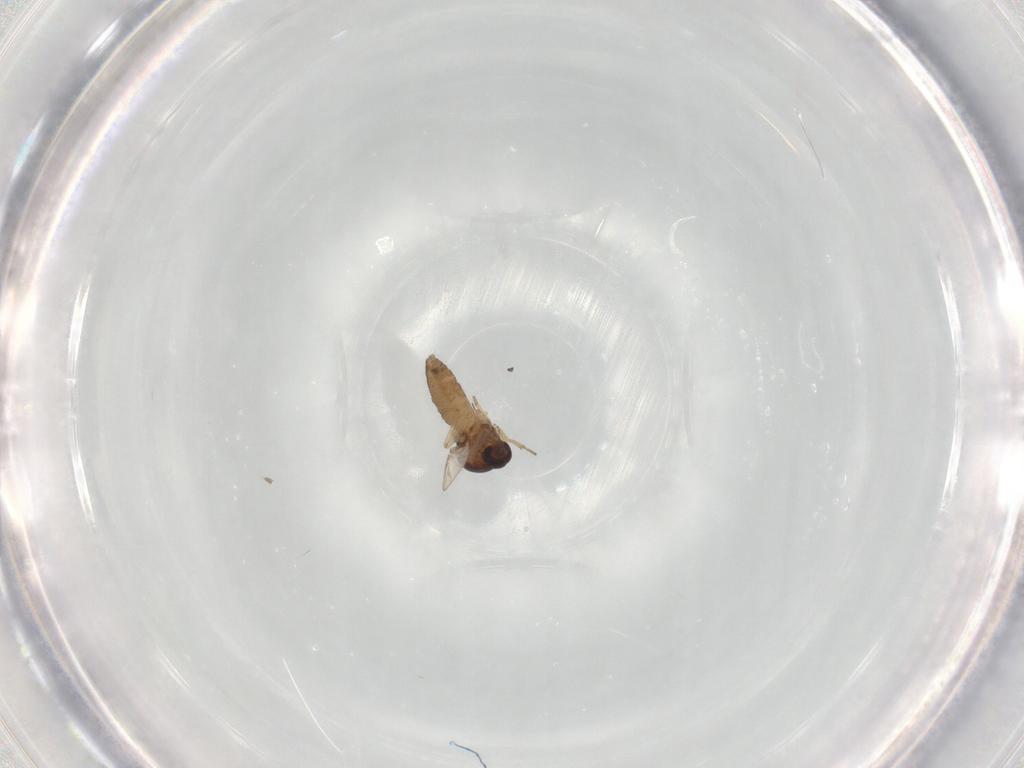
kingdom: Animalia
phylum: Arthropoda
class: Insecta
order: Diptera
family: Ceratopogonidae
